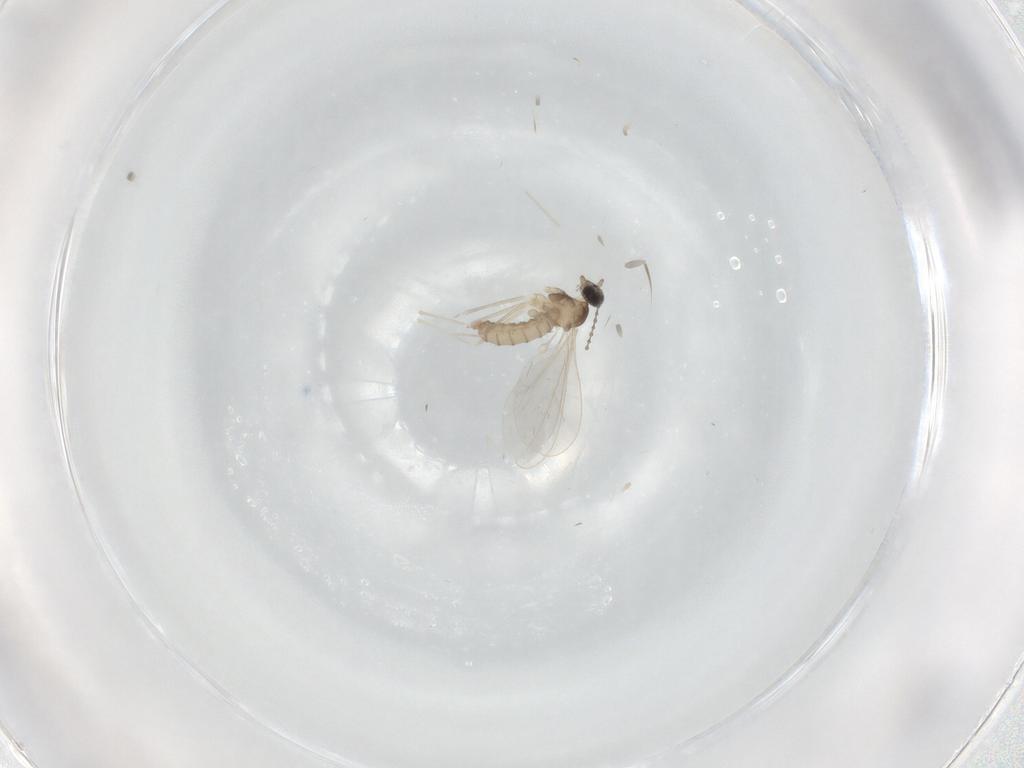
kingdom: Animalia
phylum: Arthropoda
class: Insecta
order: Diptera
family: Cecidomyiidae
